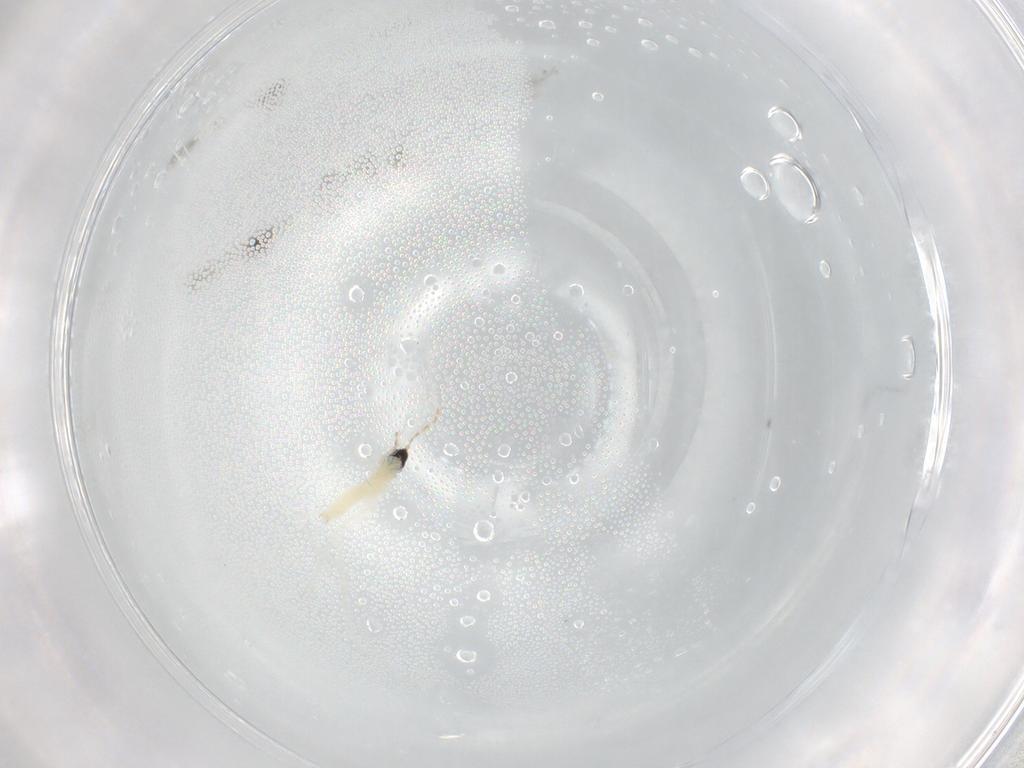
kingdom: Animalia
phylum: Arthropoda
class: Insecta
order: Diptera
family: Syrphidae
